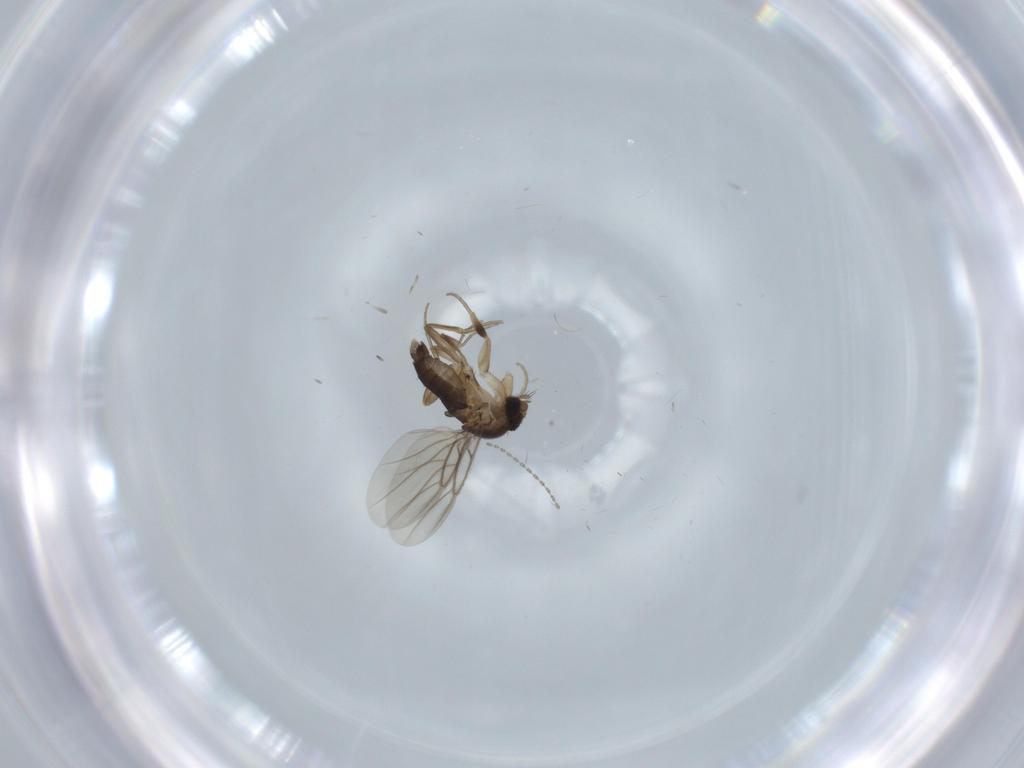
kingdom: Animalia
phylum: Arthropoda
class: Insecta
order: Diptera
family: Phoridae
